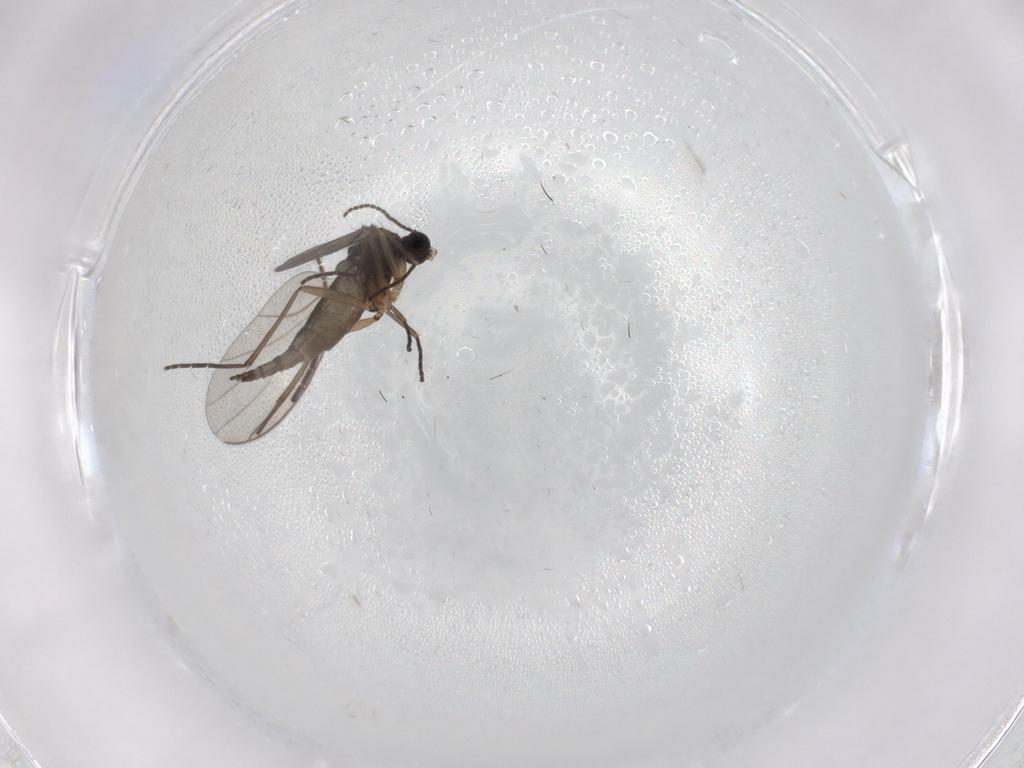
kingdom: Animalia
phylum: Arthropoda
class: Insecta
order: Diptera
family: Sciaridae
